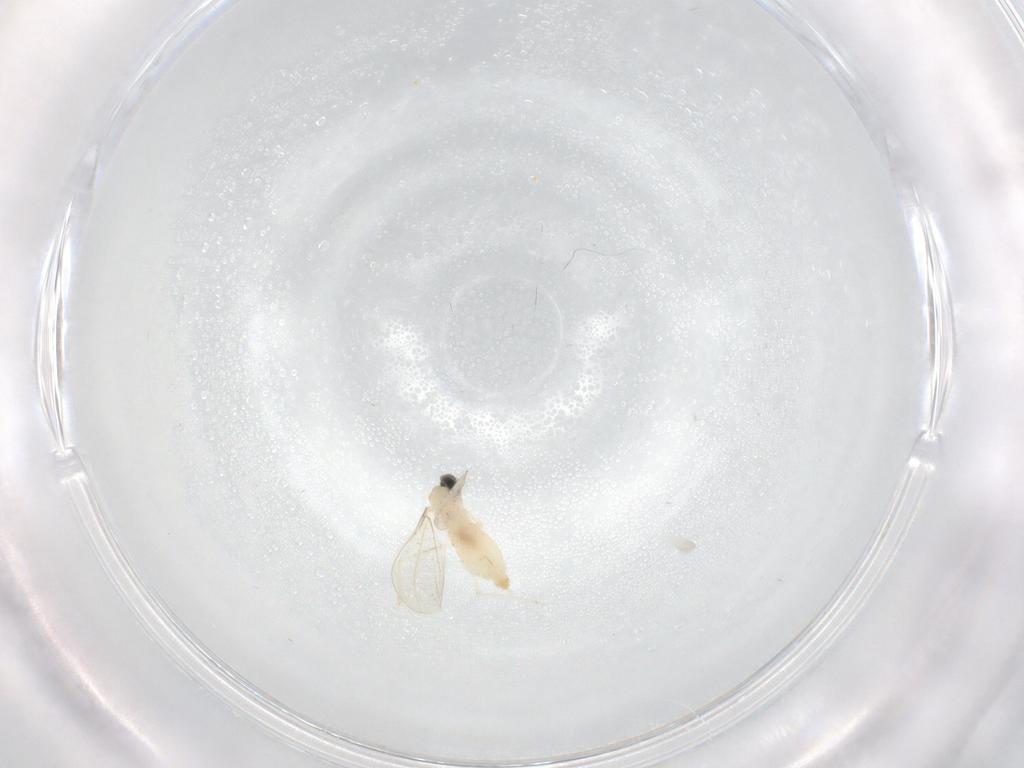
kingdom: Animalia
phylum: Arthropoda
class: Insecta
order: Diptera
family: Cecidomyiidae
